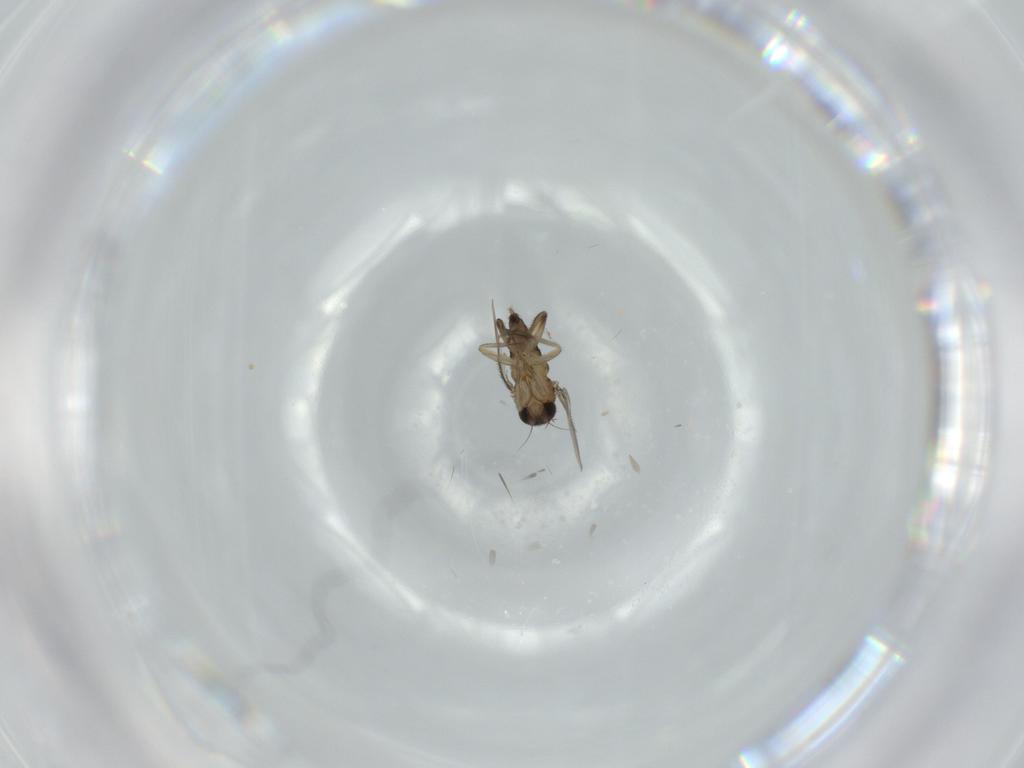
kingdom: Animalia
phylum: Arthropoda
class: Insecta
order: Diptera
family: Phoridae
